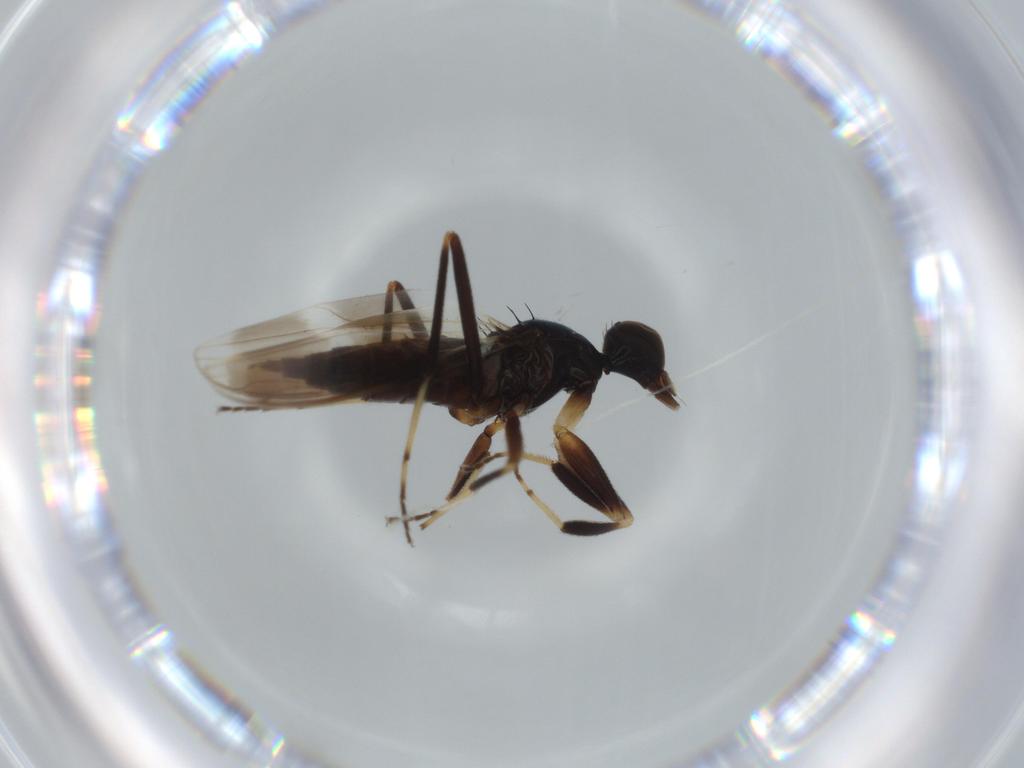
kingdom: Animalia
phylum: Arthropoda
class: Insecta
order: Diptera
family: Hybotidae
